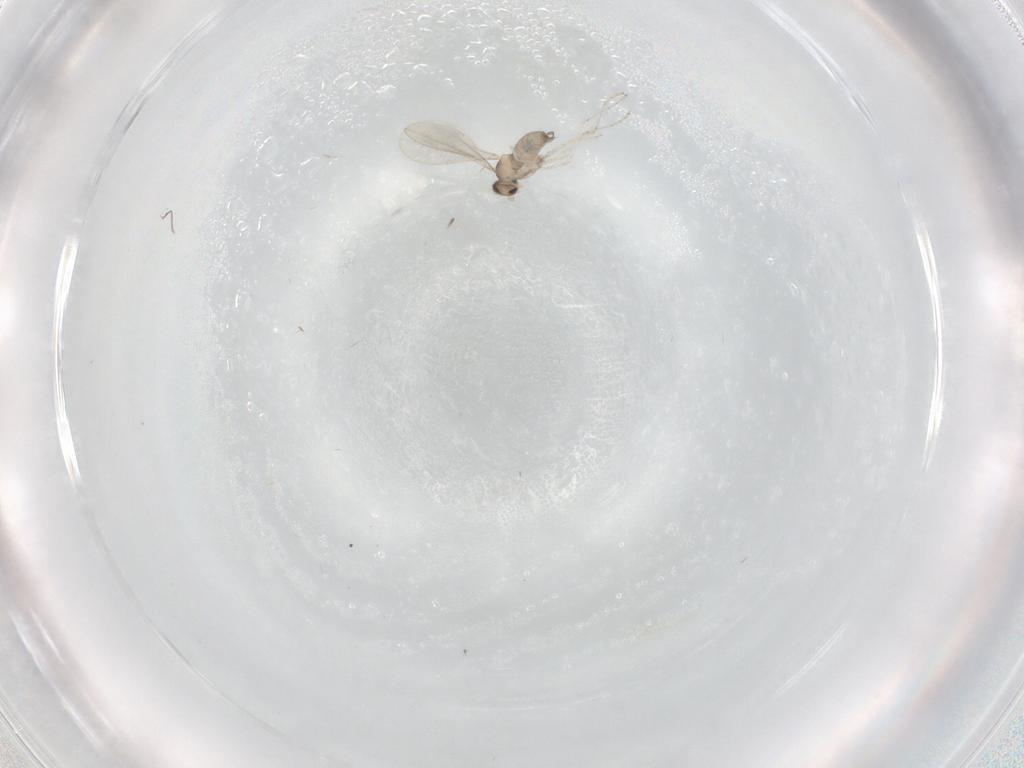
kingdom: Animalia
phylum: Arthropoda
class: Insecta
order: Diptera
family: Cecidomyiidae
